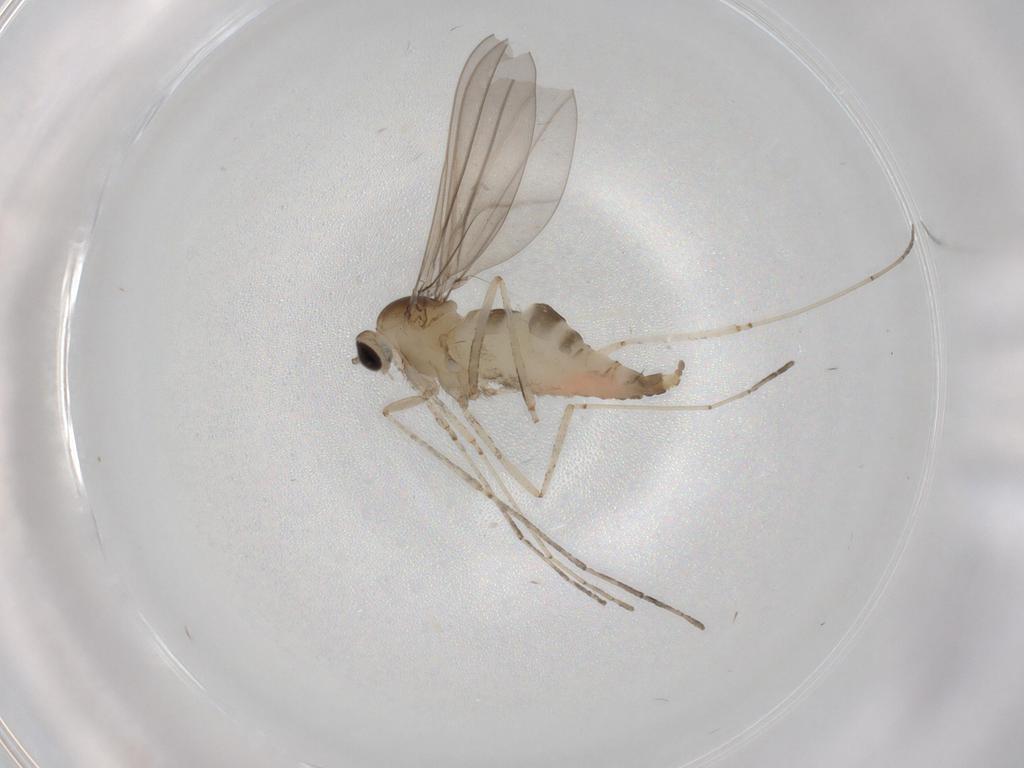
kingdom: Animalia
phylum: Arthropoda
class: Insecta
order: Diptera
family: Cecidomyiidae
